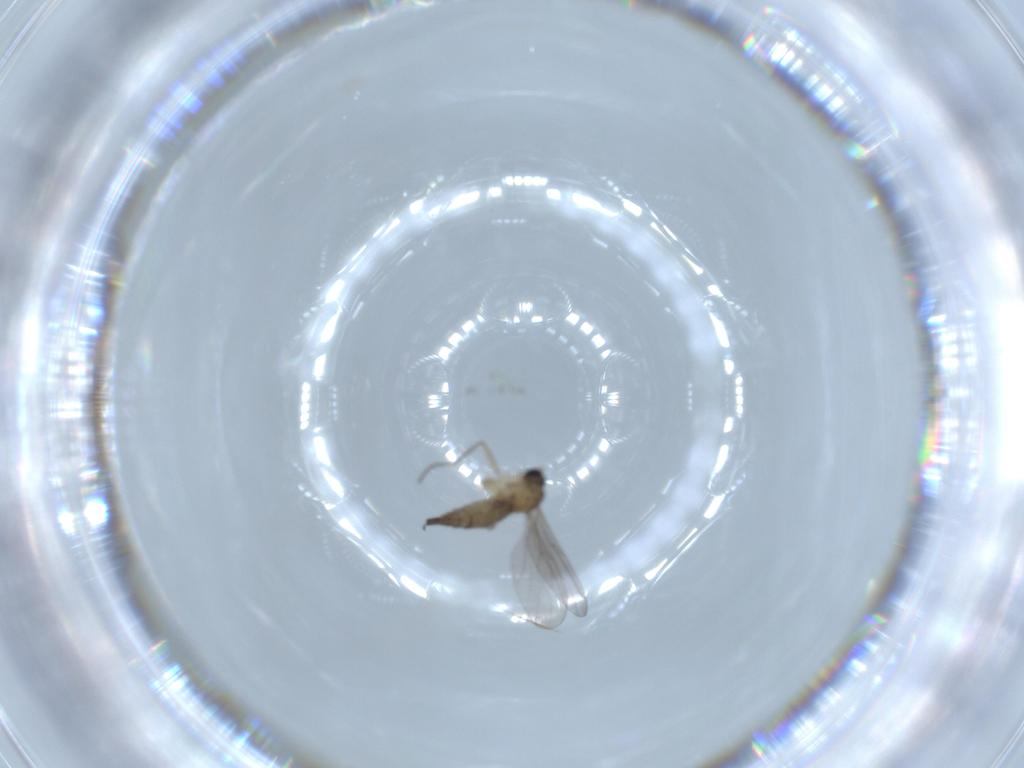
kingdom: Animalia
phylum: Arthropoda
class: Insecta
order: Diptera
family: Sciaridae
